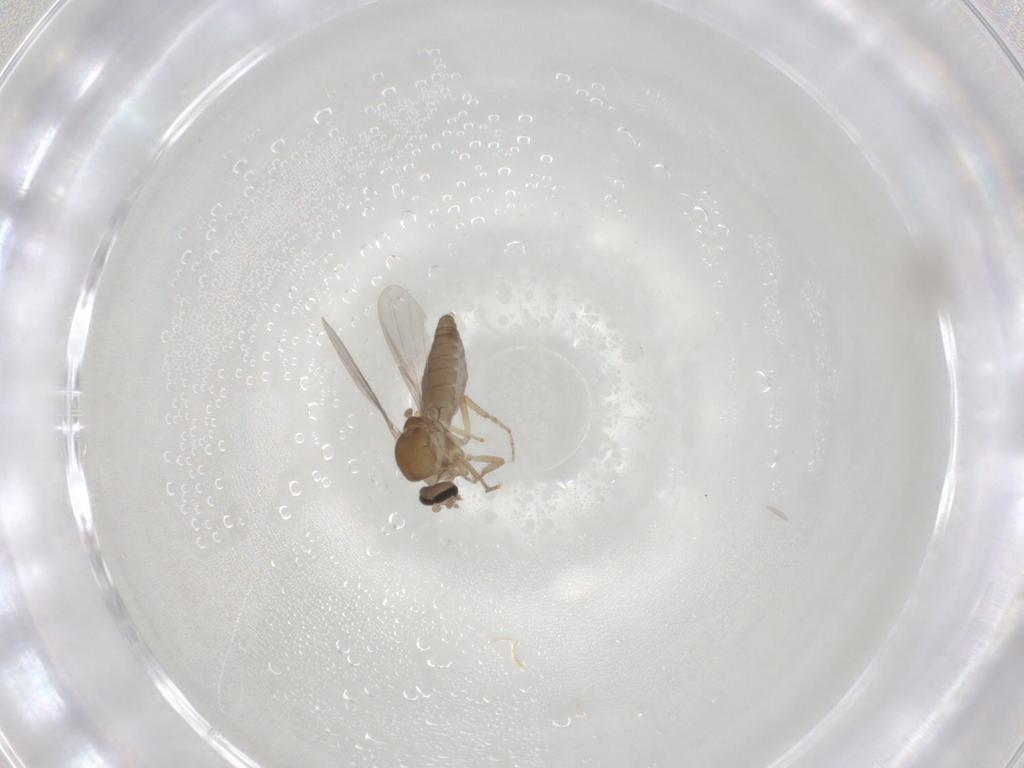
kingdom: Animalia
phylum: Arthropoda
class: Insecta
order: Diptera
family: Ceratopogonidae
